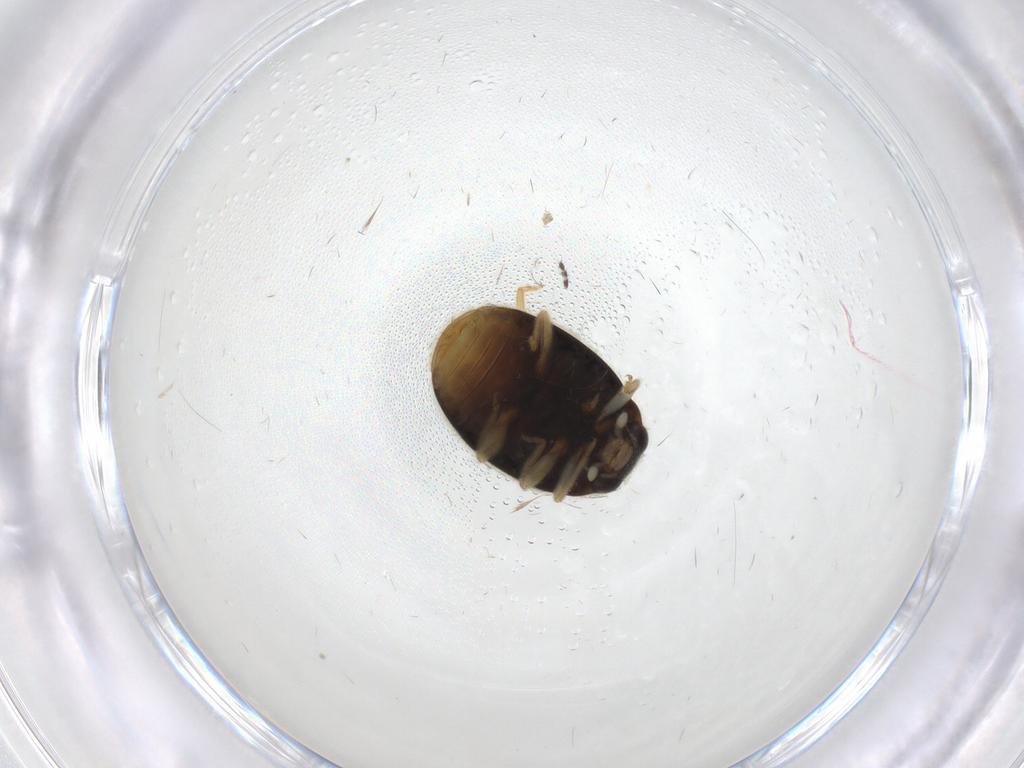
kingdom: Animalia
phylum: Arthropoda
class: Insecta
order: Coleoptera
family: Coccinellidae
